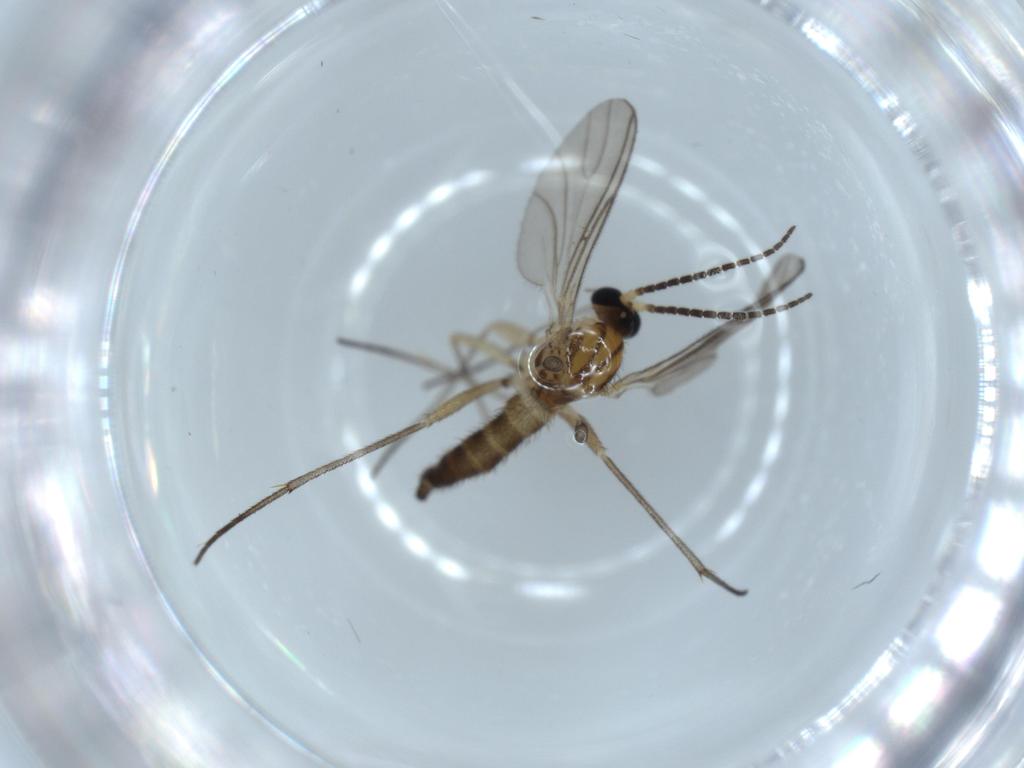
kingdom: Animalia
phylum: Arthropoda
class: Insecta
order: Diptera
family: Sciaridae
